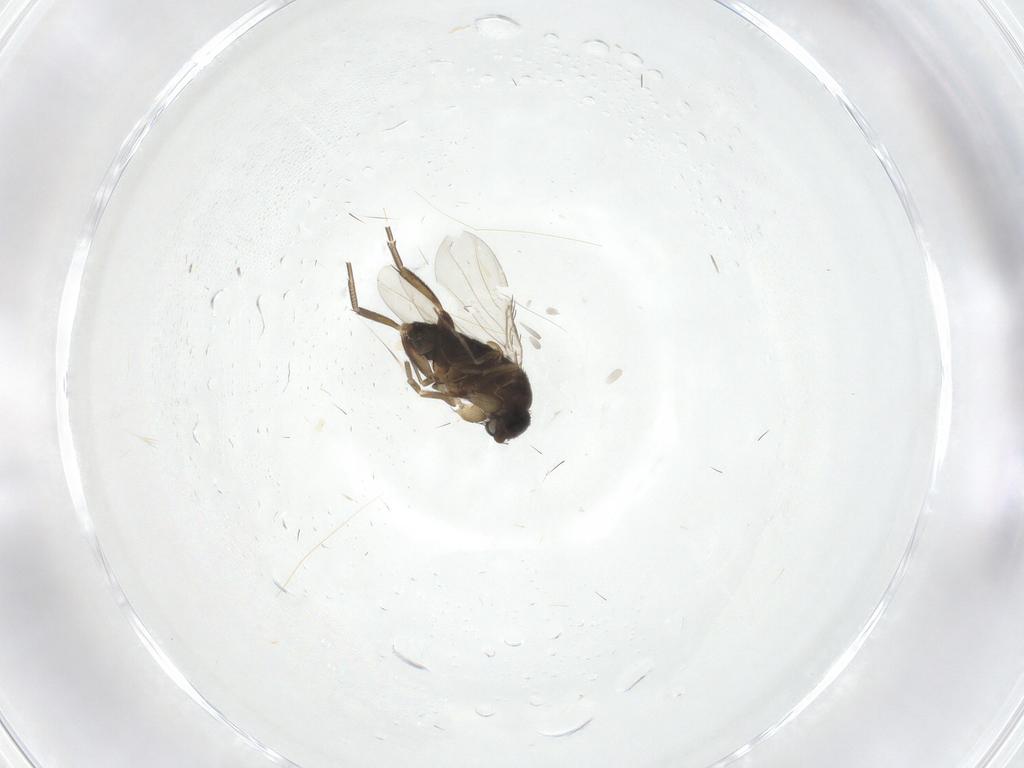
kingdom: Animalia
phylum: Arthropoda
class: Insecta
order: Diptera
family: Phoridae
